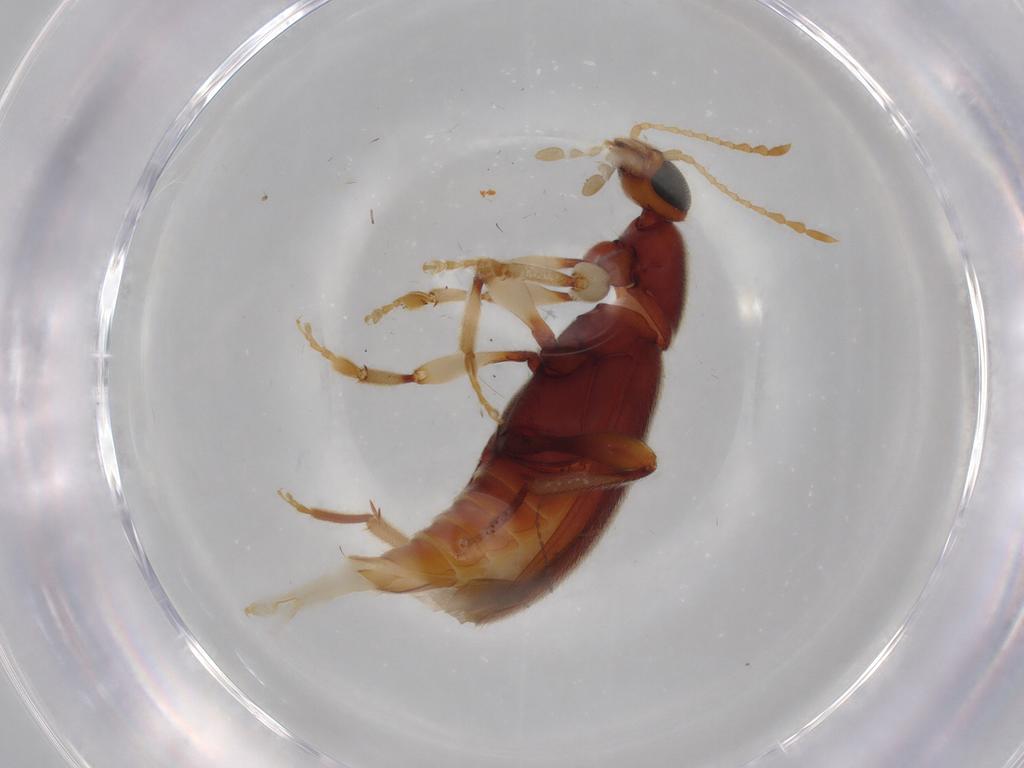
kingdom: Animalia
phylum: Arthropoda
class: Insecta
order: Coleoptera
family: Anthicidae
